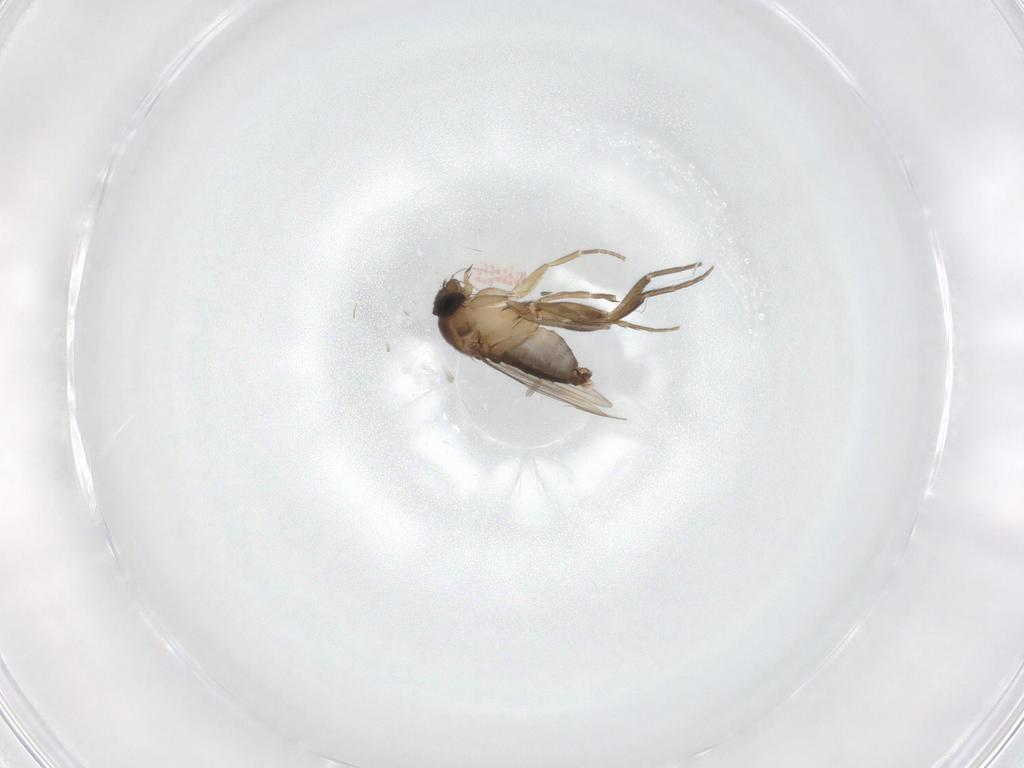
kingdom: Animalia
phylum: Arthropoda
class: Insecta
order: Diptera
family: Phoridae
